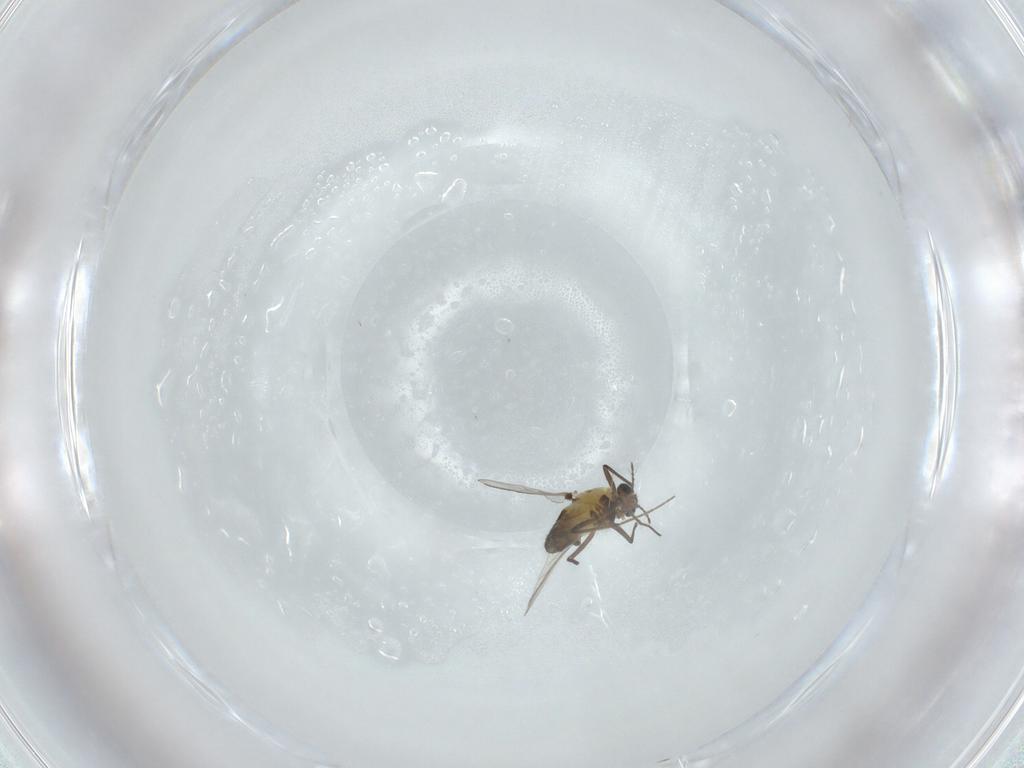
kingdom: Animalia
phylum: Arthropoda
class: Insecta
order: Diptera
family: Chironomidae
